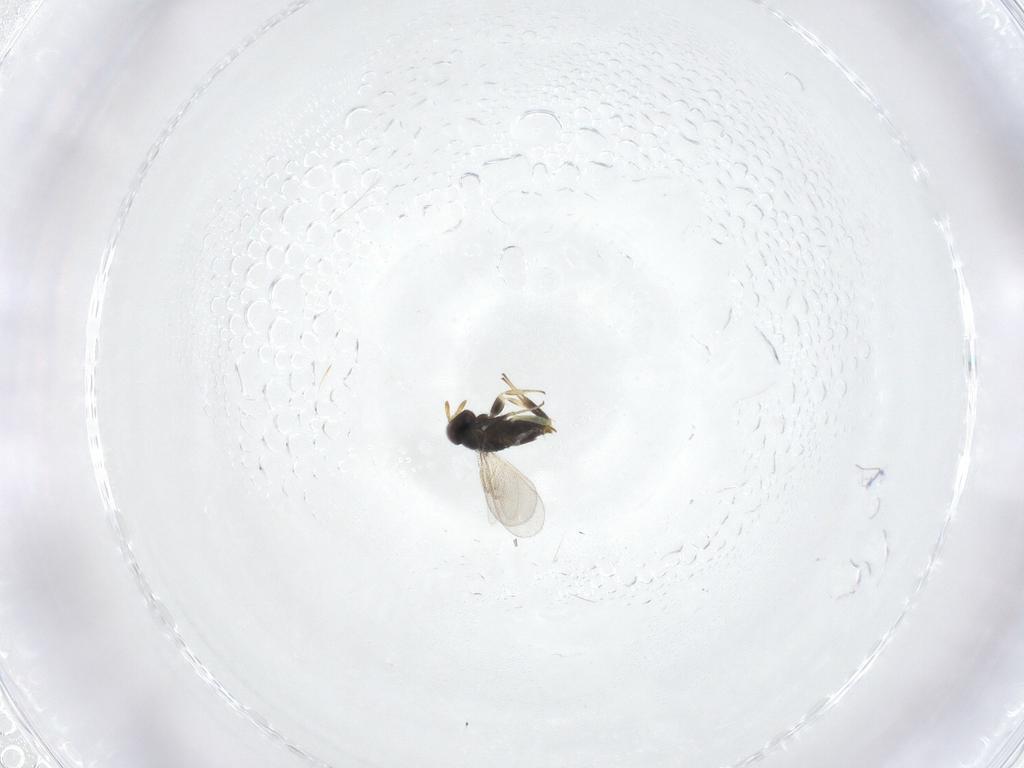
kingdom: Animalia
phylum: Arthropoda
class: Insecta
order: Hymenoptera
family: Aphelinidae
